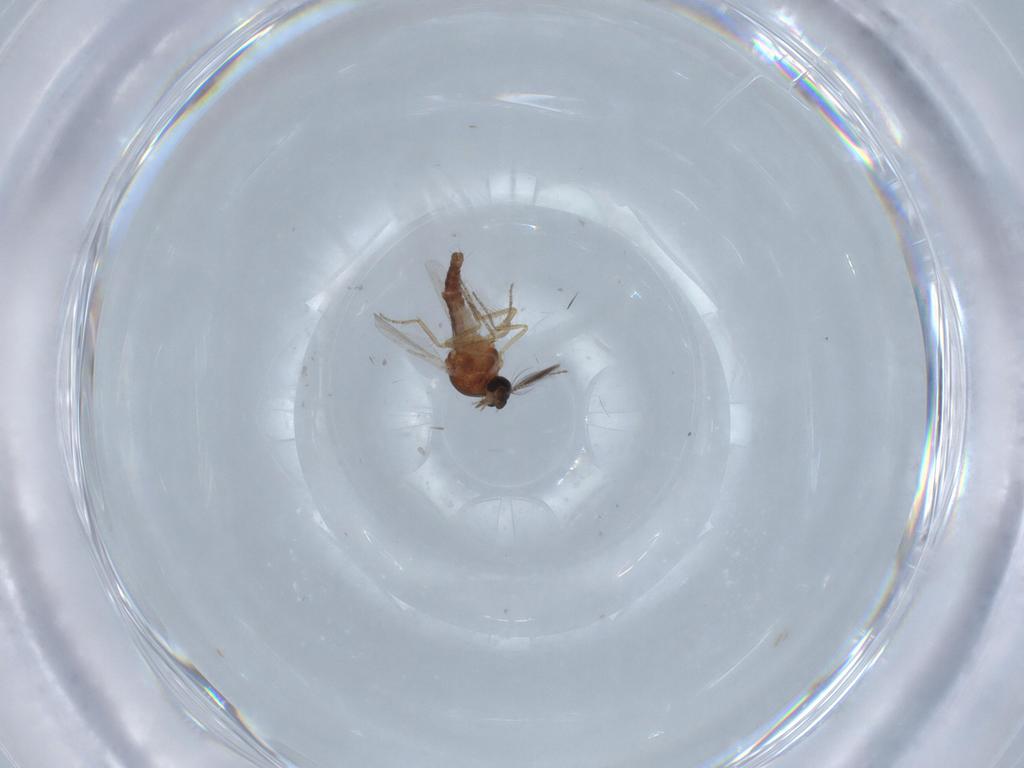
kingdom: Animalia
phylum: Arthropoda
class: Insecta
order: Diptera
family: Ceratopogonidae
